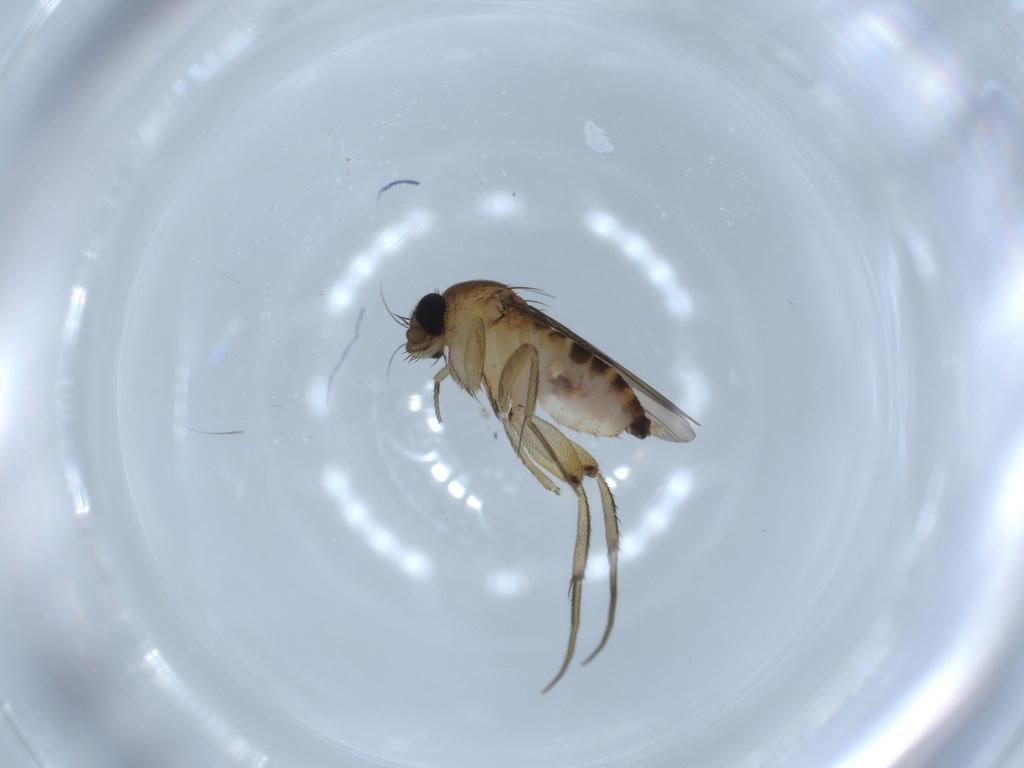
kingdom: Animalia
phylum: Arthropoda
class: Insecta
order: Diptera
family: Phoridae
